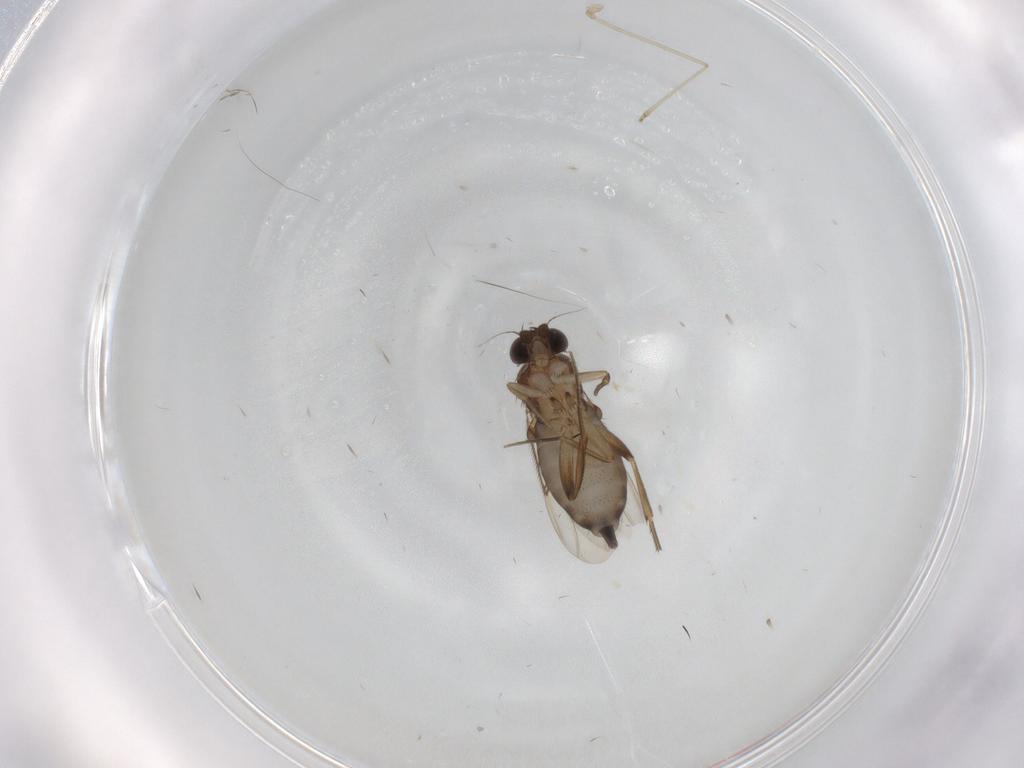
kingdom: Animalia
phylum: Arthropoda
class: Insecta
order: Diptera
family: Phoridae
